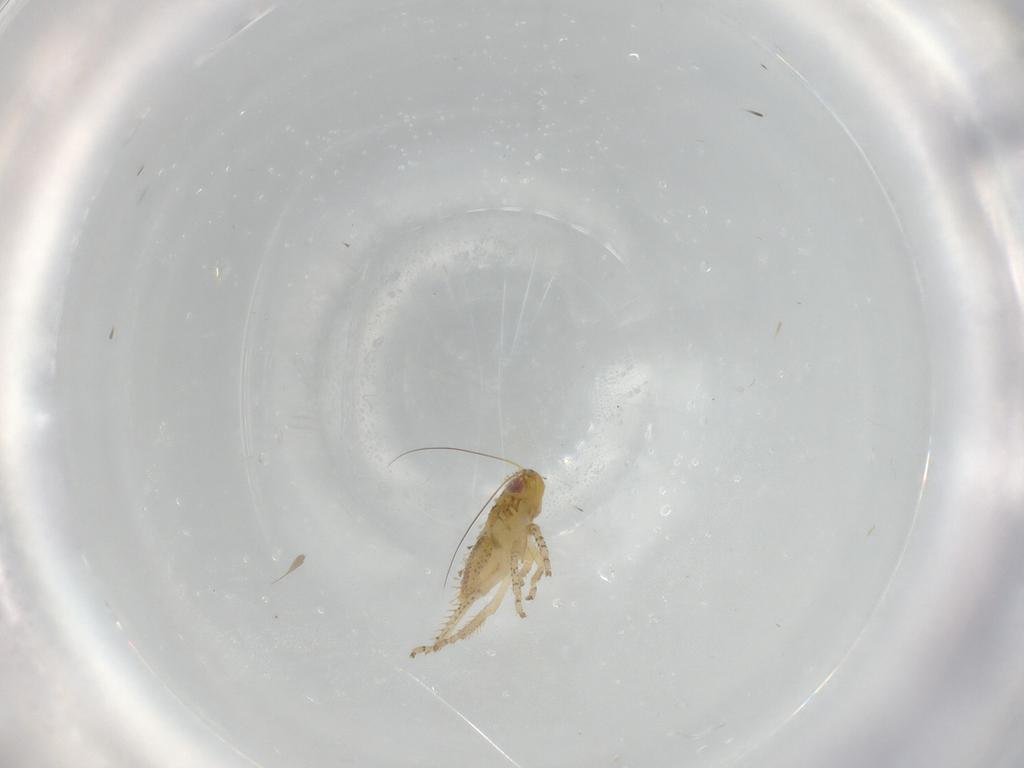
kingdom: Animalia
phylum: Arthropoda
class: Insecta
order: Hemiptera
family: Cicadellidae
